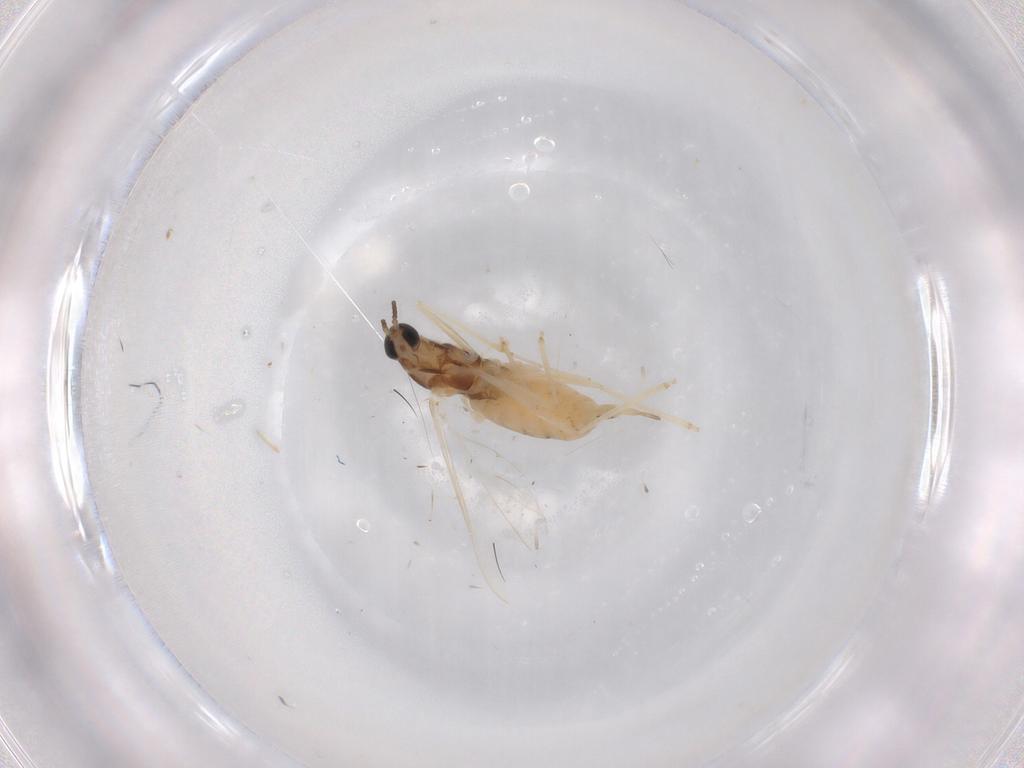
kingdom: Animalia
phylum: Arthropoda
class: Insecta
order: Diptera
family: Cecidomyiidae
